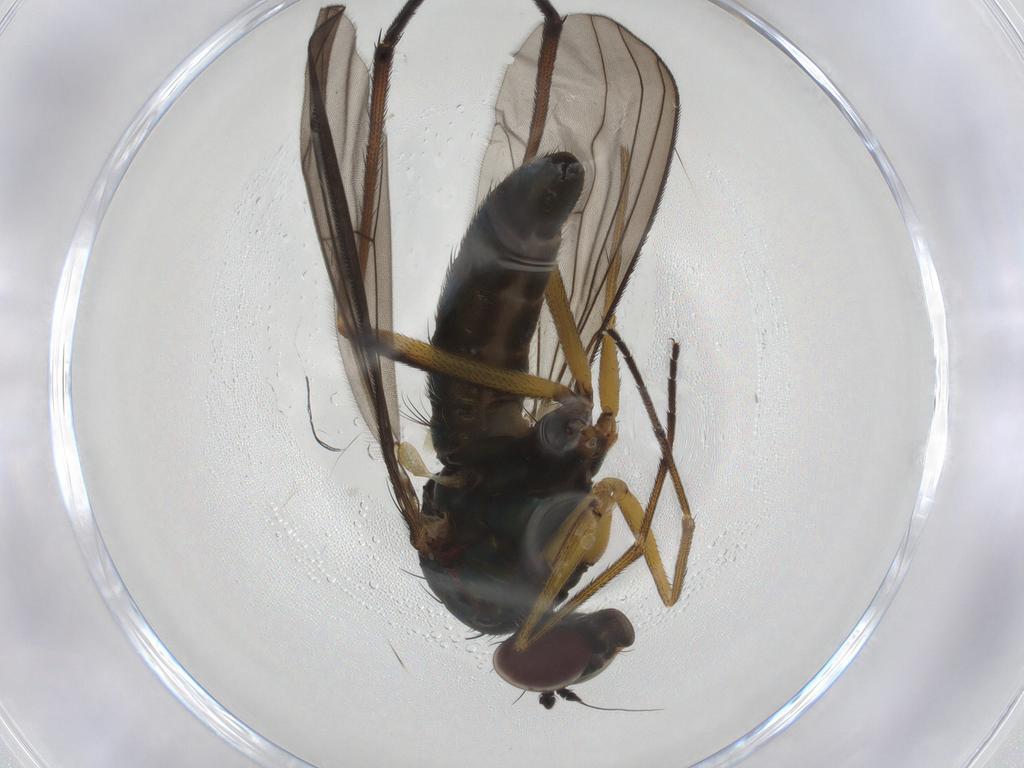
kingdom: Animalia
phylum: Arthropoda
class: Insecta
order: Diptera
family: Dolichopodidae
